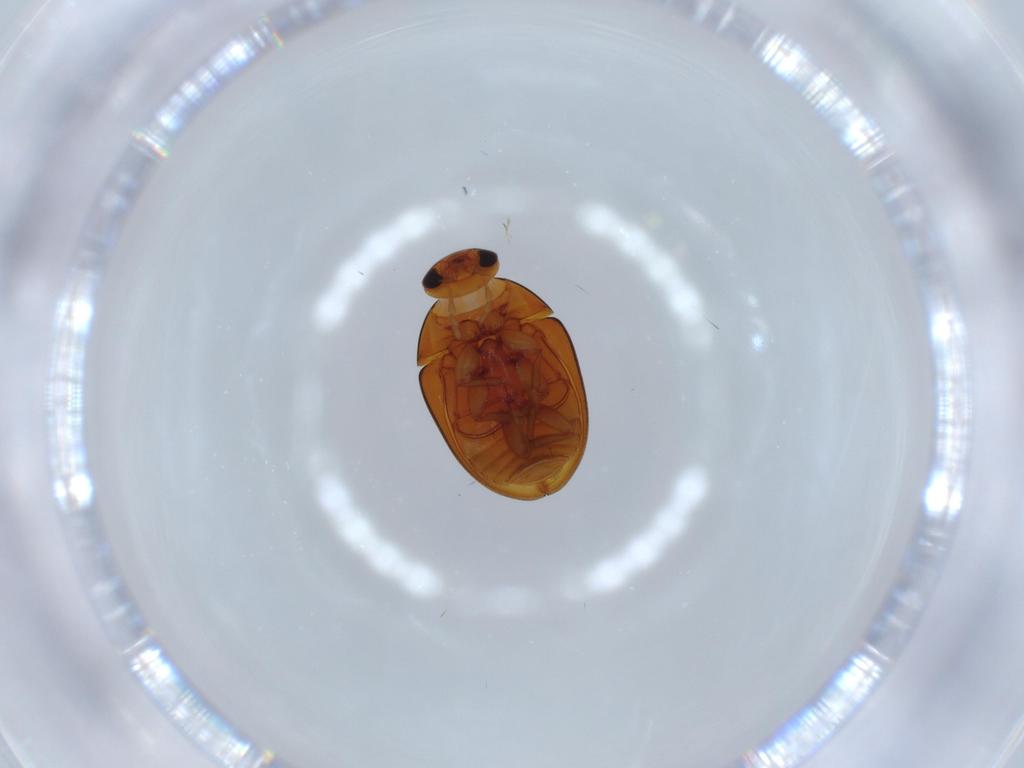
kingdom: Animalia
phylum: Arthropoda
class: Insecta
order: Coleoptera
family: Phalacridae
